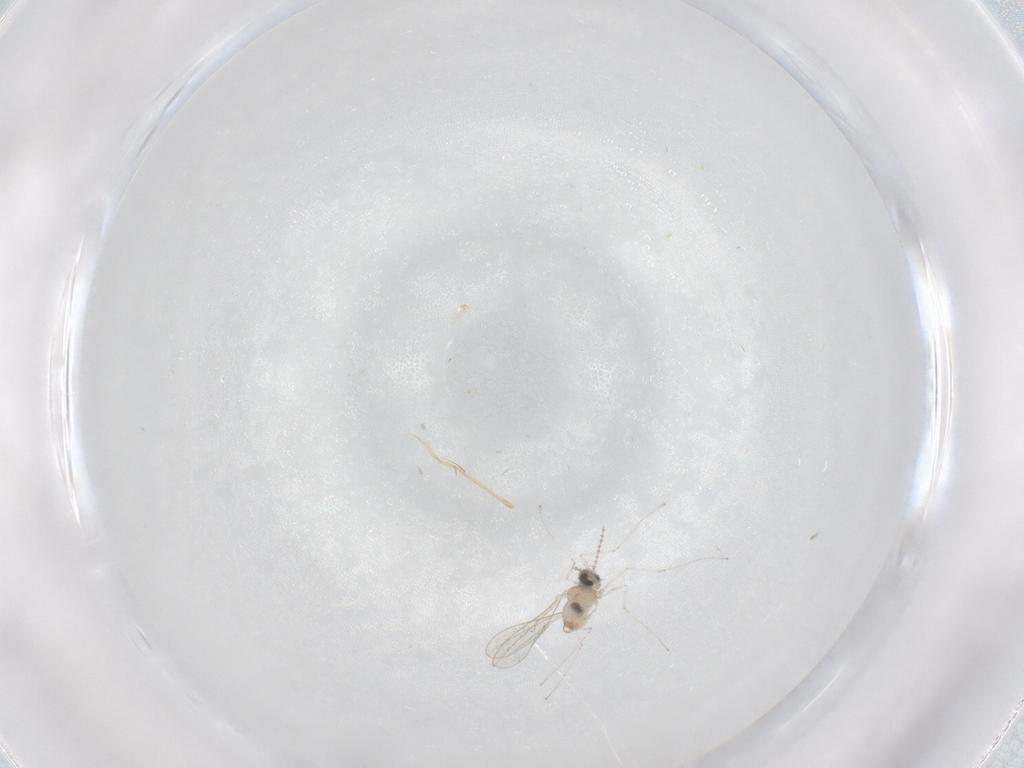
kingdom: Animalia
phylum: Arthropoda
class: Insecta
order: Diptera
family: Cecidomyiidae
